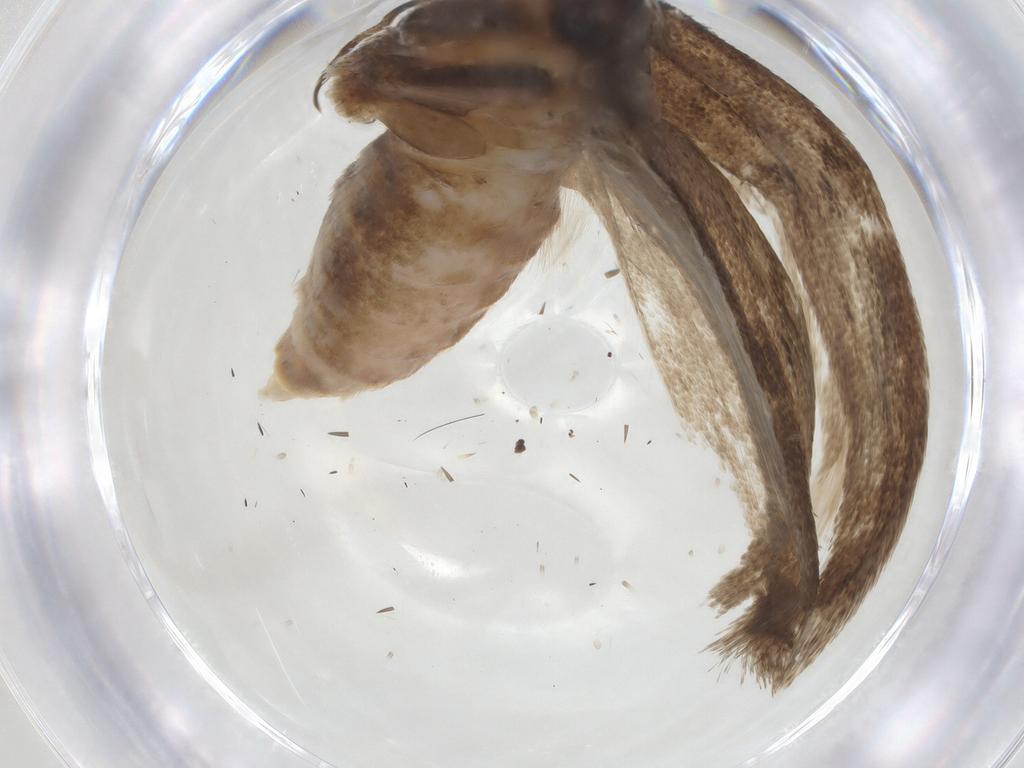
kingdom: Animalia
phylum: Arthropoda
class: Insecta
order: Lepidoptera
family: Blastobasidae
